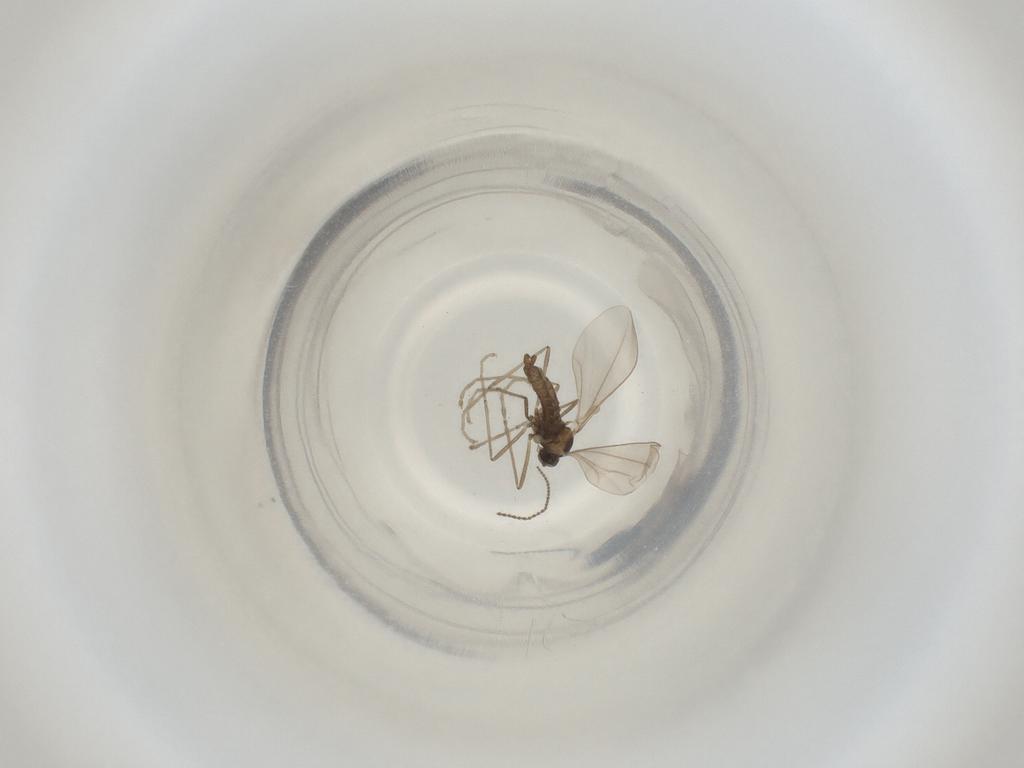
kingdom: Animalia
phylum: Arthropoda
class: Insecta
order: Diptera
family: Cecidomyiidae
